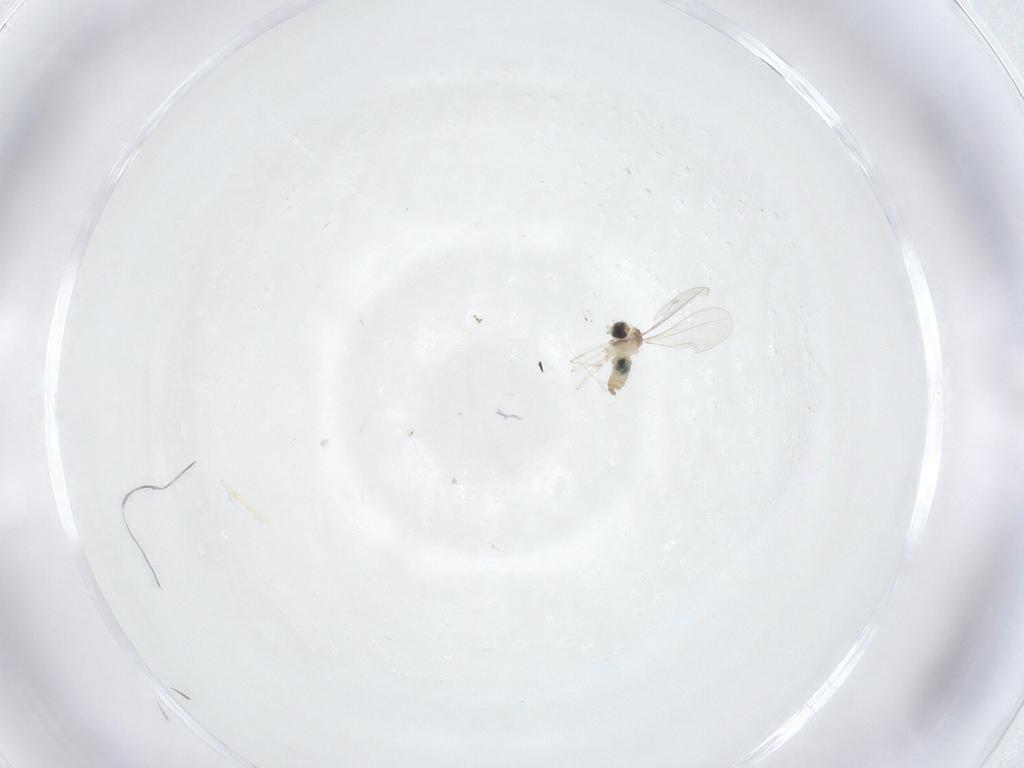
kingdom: Animalia
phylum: Arthropoda
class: Insecta
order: Diptera
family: Cecidomyiidae
